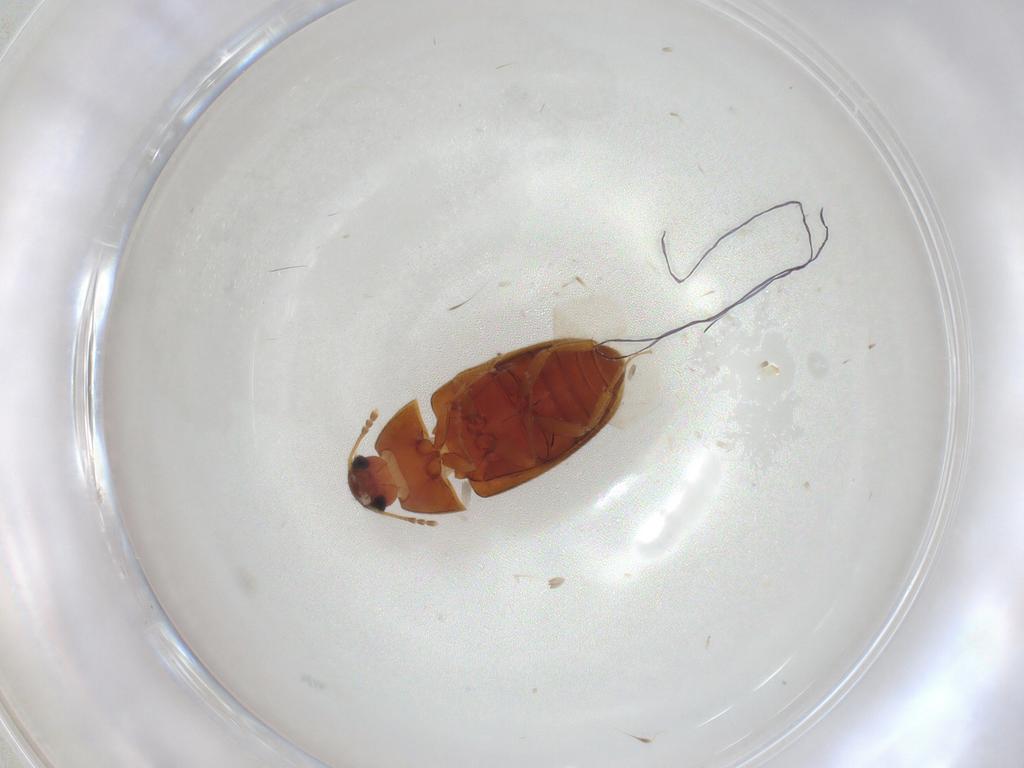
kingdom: Animalia
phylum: Arthropoda
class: Insecta
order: Coleoptera
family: Mycetophagidae
